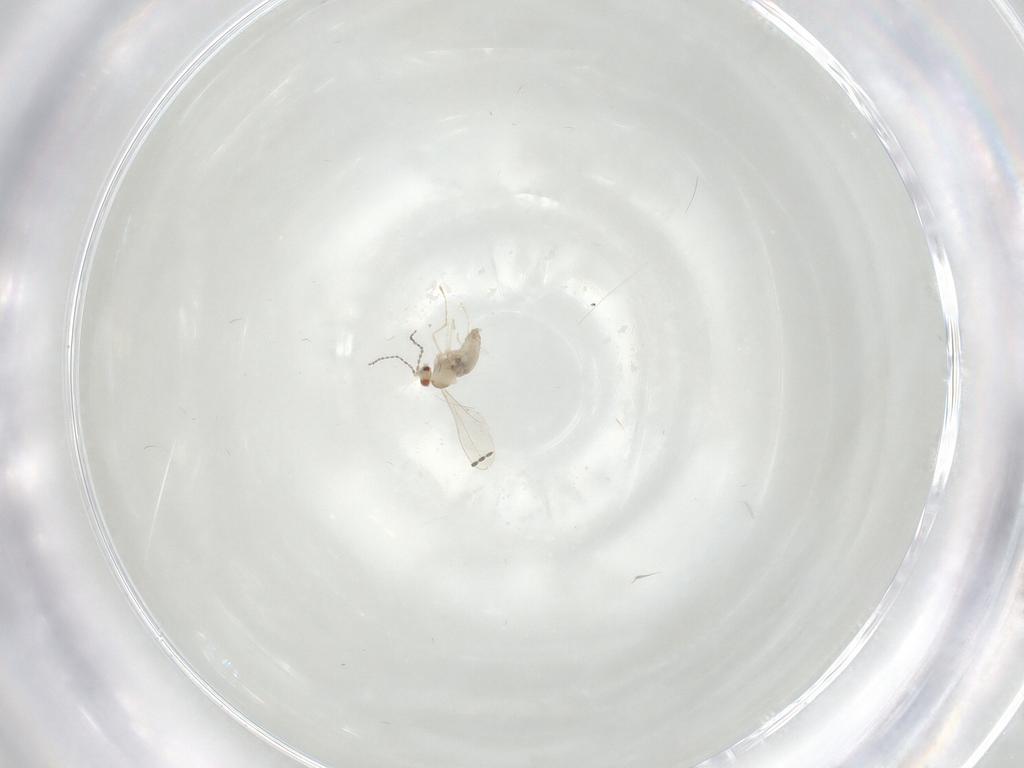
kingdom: Animalia
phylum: Arthropoda
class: Insecta
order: Diptera
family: Cecidomyiidae
